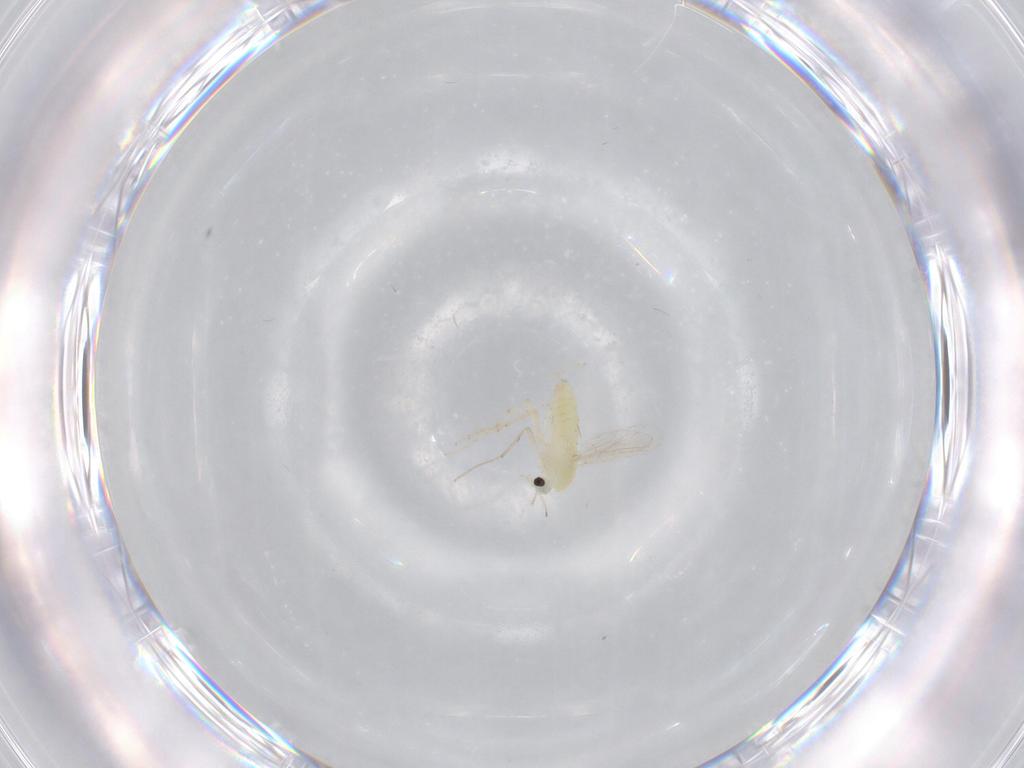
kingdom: Animalia
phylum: Arthropoda
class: Insecta
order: Diptera
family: Chironomidae
